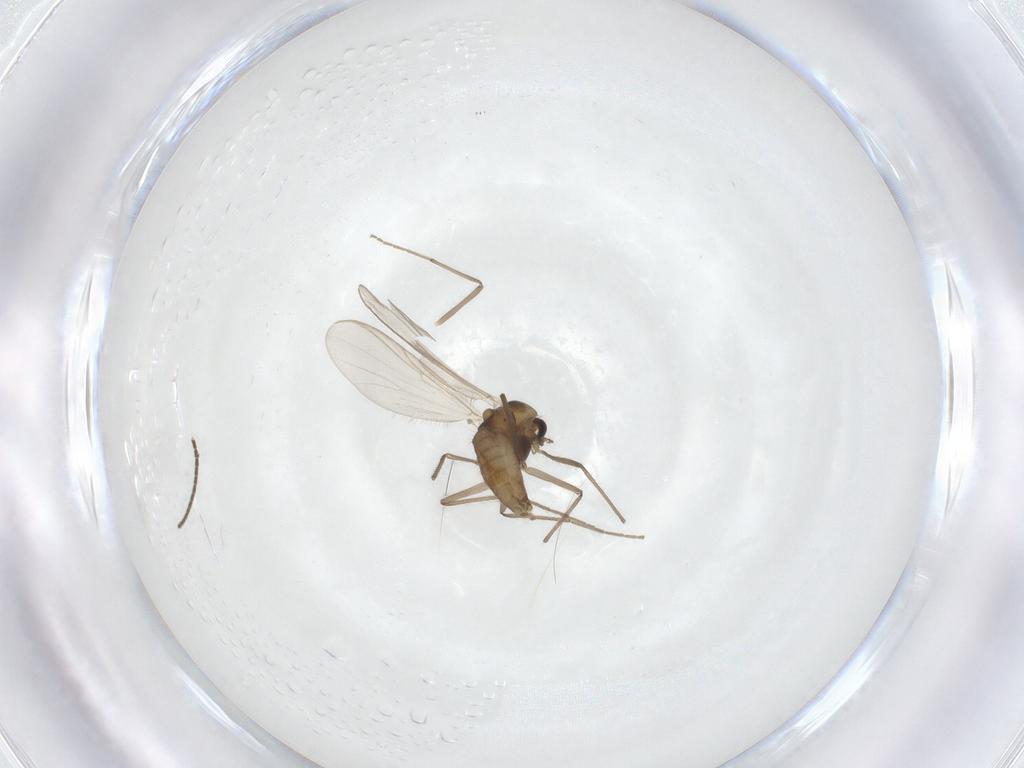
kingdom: Animalia
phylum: Arthropoda
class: Insecta
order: Diptera
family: Chironomidae
